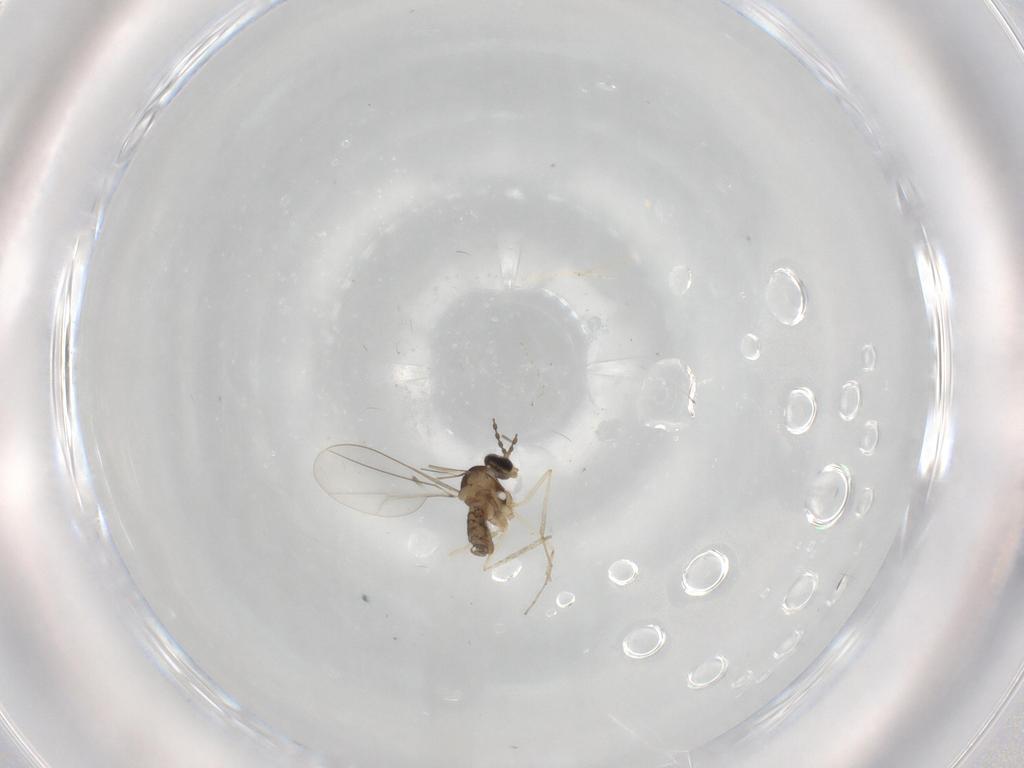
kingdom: Animalia
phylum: Arthropoda
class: Insecta
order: Diptera
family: Cecidomyiidae
